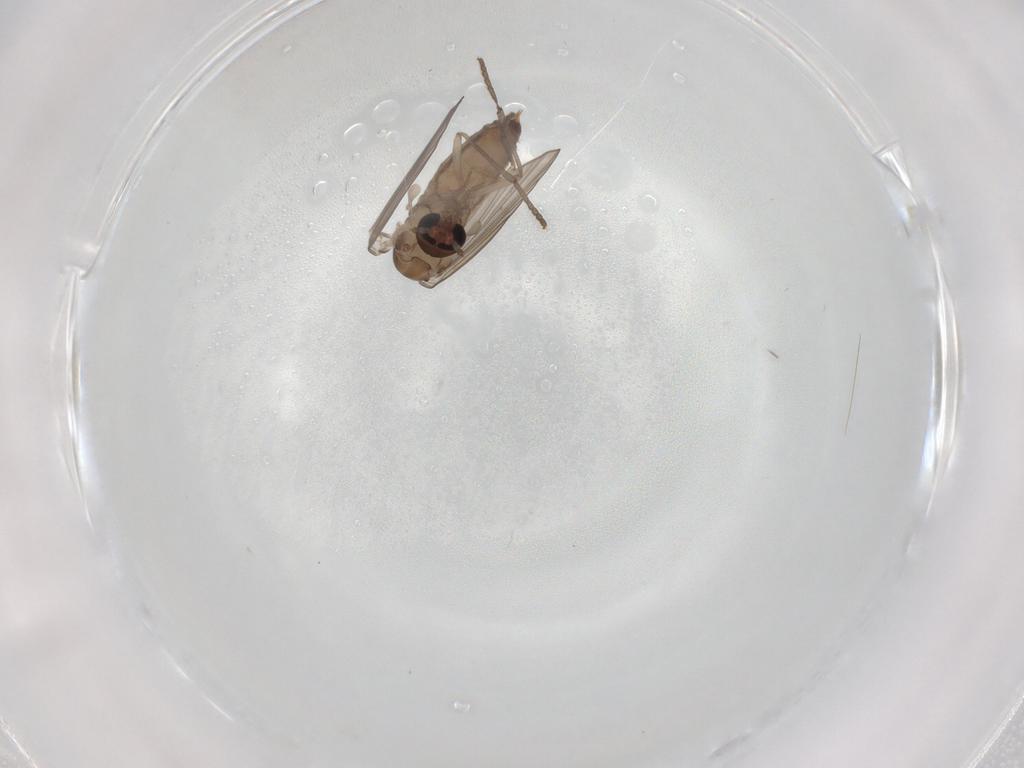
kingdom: Animalia
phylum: Arthropoda
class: Insecta
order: Diptera
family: Psychodidae
